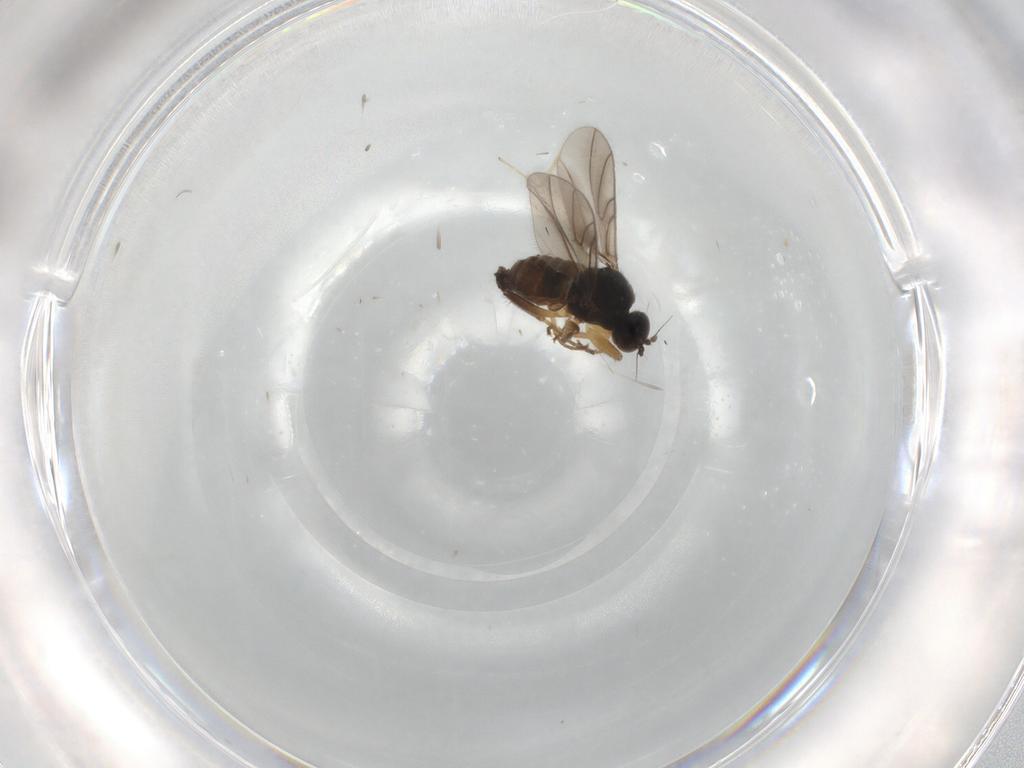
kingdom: Animalia
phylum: Arthropoda
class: Insecta
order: Diptera
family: Hybotidae
